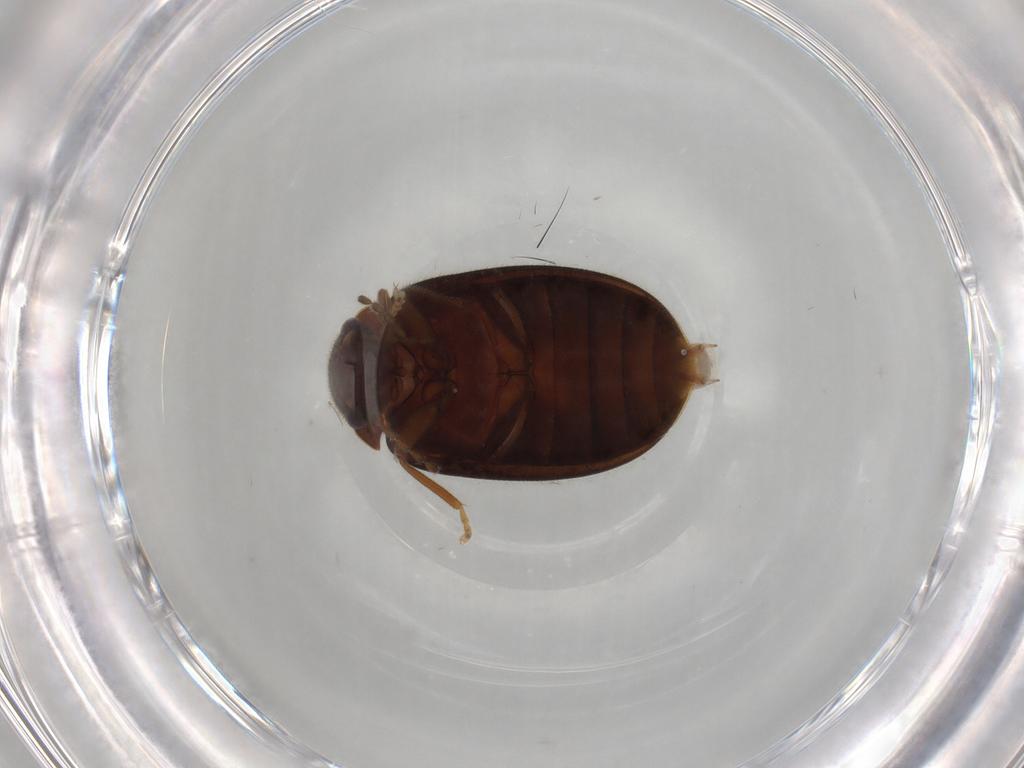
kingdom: Animalia
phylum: Arthropoda
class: Insecta
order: Coleoptera
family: Scirtidae
